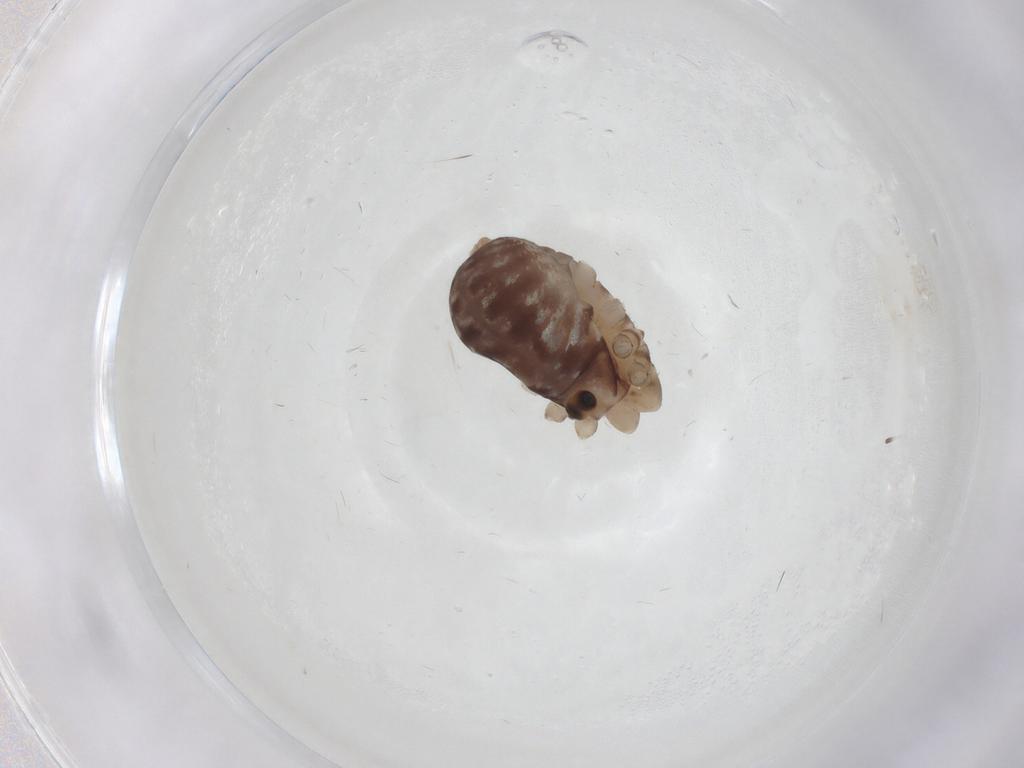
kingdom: Animalia
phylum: Arthropoda
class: Arachnida
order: Opiliones
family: Phalangiidae
